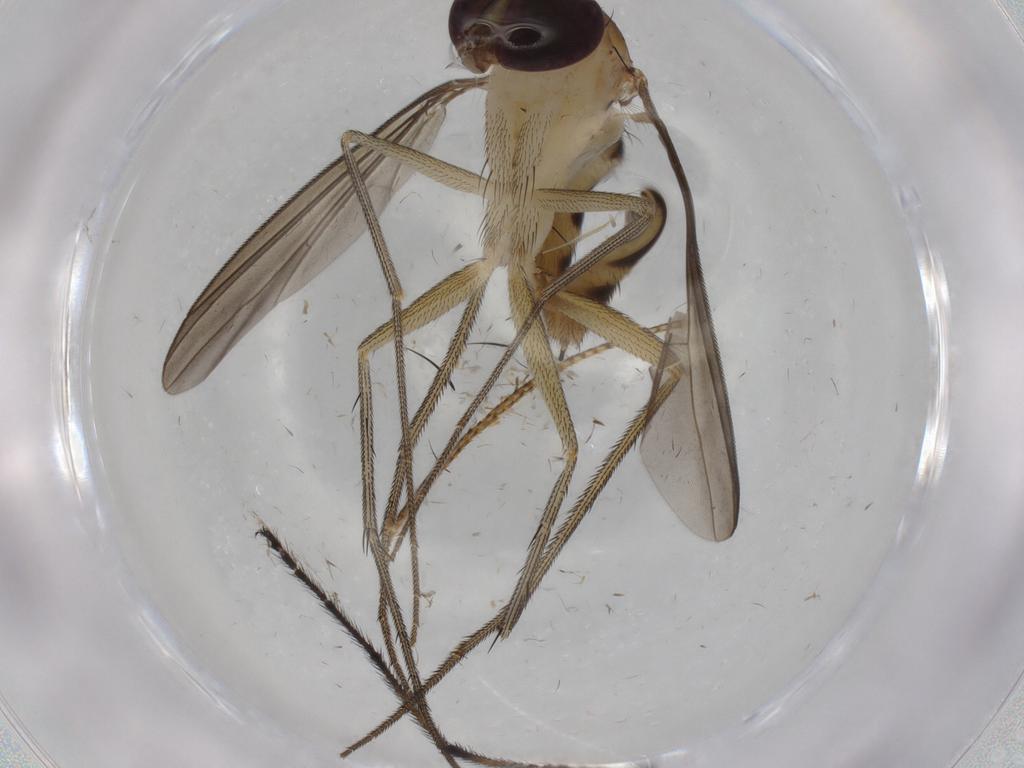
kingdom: Animalia
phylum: Arthropoda
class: Insecta
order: Diptera
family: Dolichopodidae
